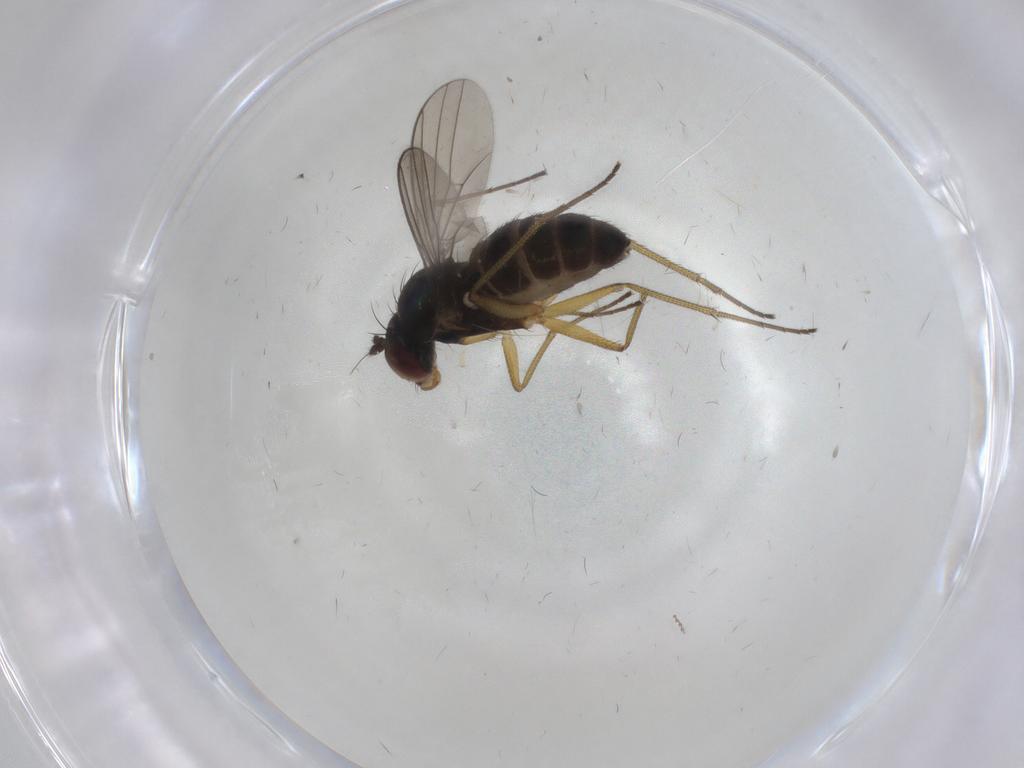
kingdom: Animalia
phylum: Arthropoda
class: Insecta
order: Diptera
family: Dolichopodidae
